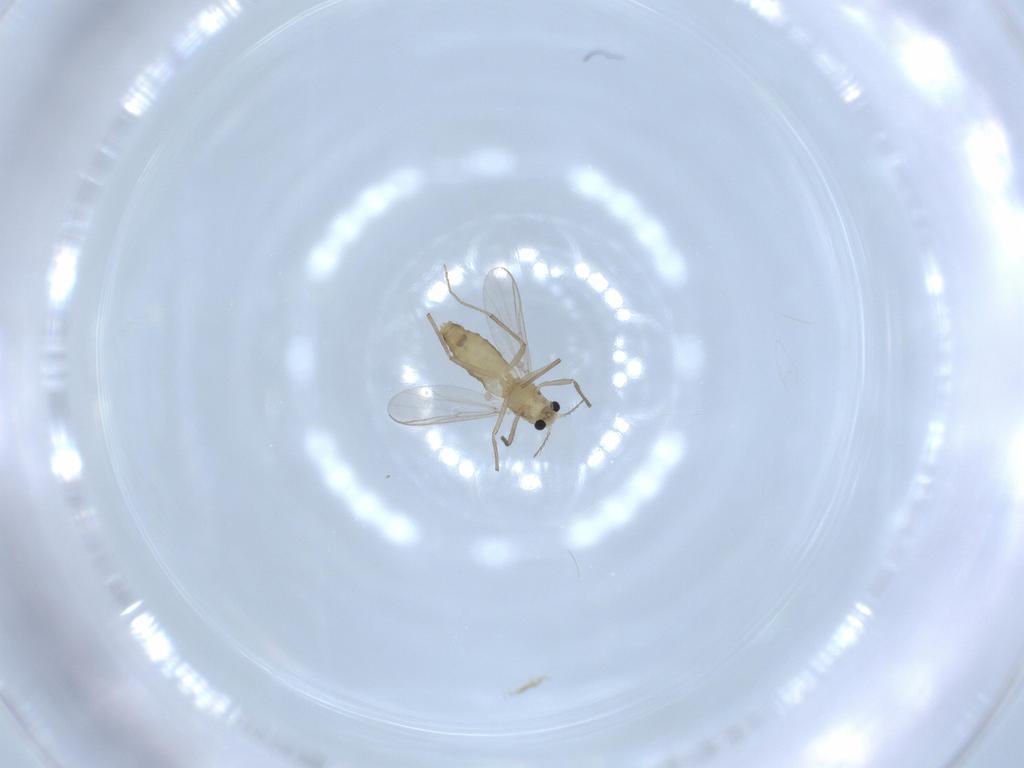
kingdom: Animalia
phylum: Arthropoda
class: Insecta
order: Diptera
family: Chironomidae
